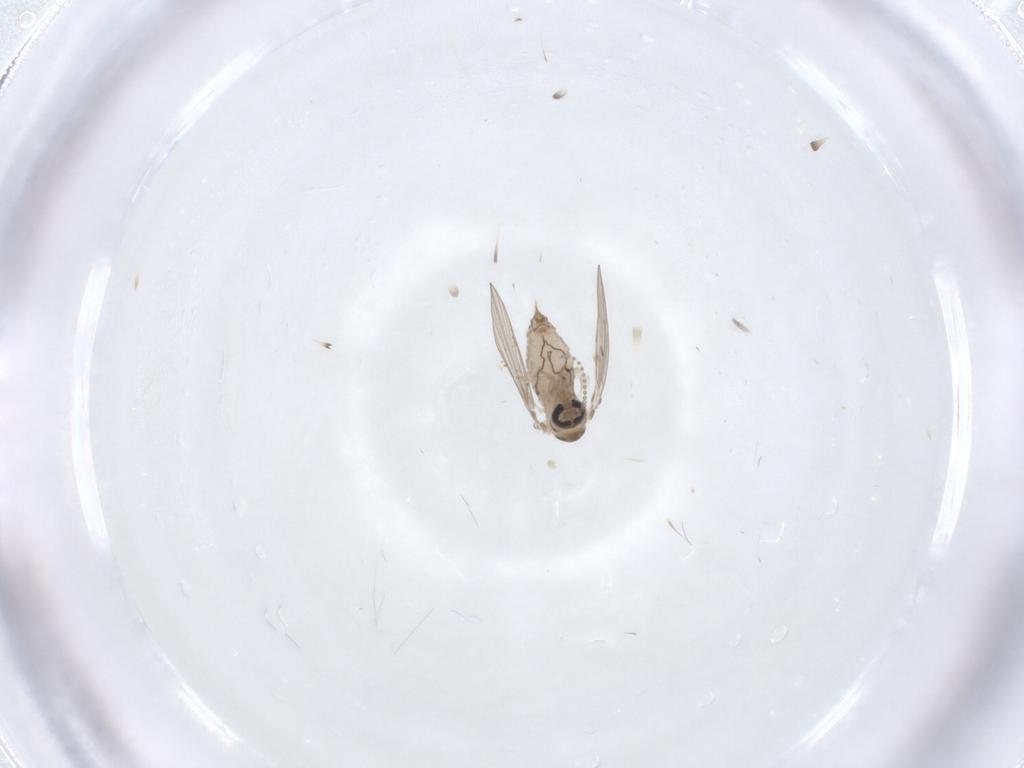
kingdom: Animalia
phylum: Arthropoda
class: Insecta
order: Diptera
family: Psychodidae
